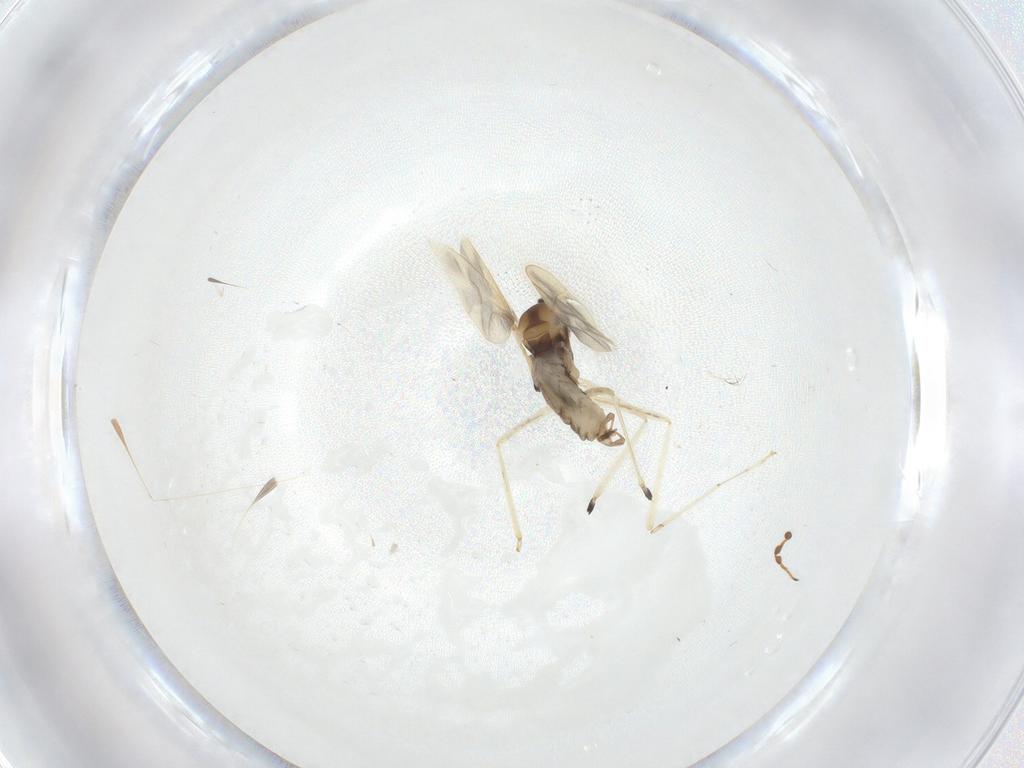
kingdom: Animalia
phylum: Arthropoda
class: Insecta
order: Diptera
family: Cecidomyiidae
